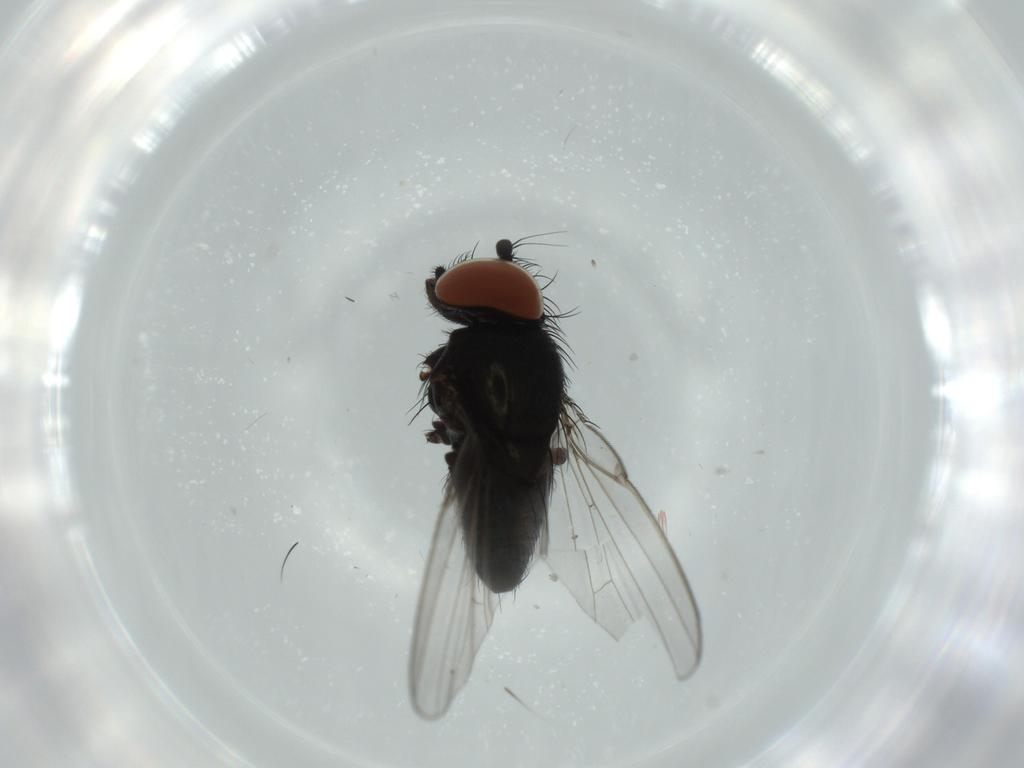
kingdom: Animalia
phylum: Arthropoda
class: Insecta
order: Diptera
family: Milichiidae
